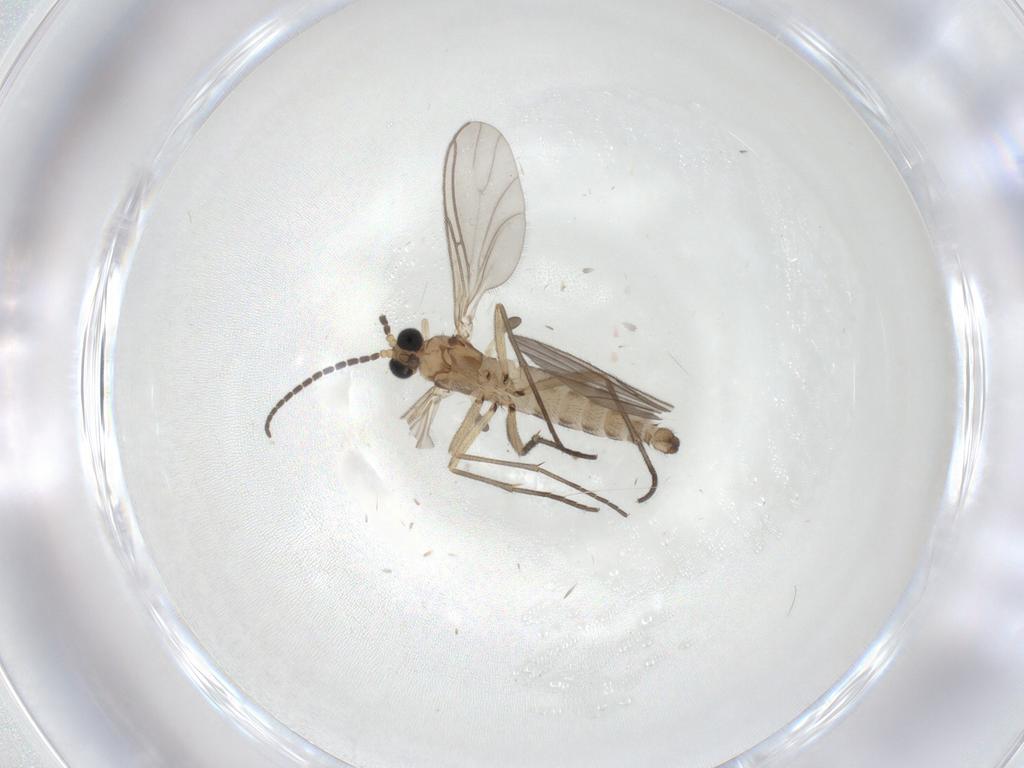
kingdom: Animalia
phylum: Arthropoda
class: Insecta
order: Diptera
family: Sciaridae
